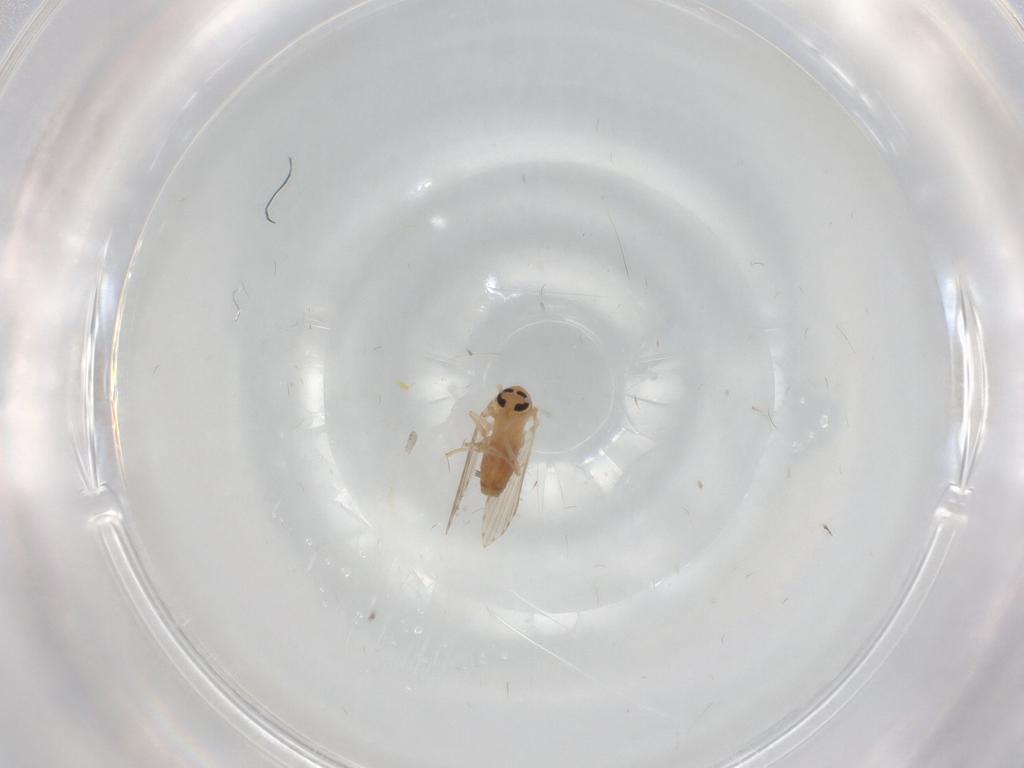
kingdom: Animalia
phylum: Arthropoda
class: Insecta
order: Diptera
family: Psychodidae
